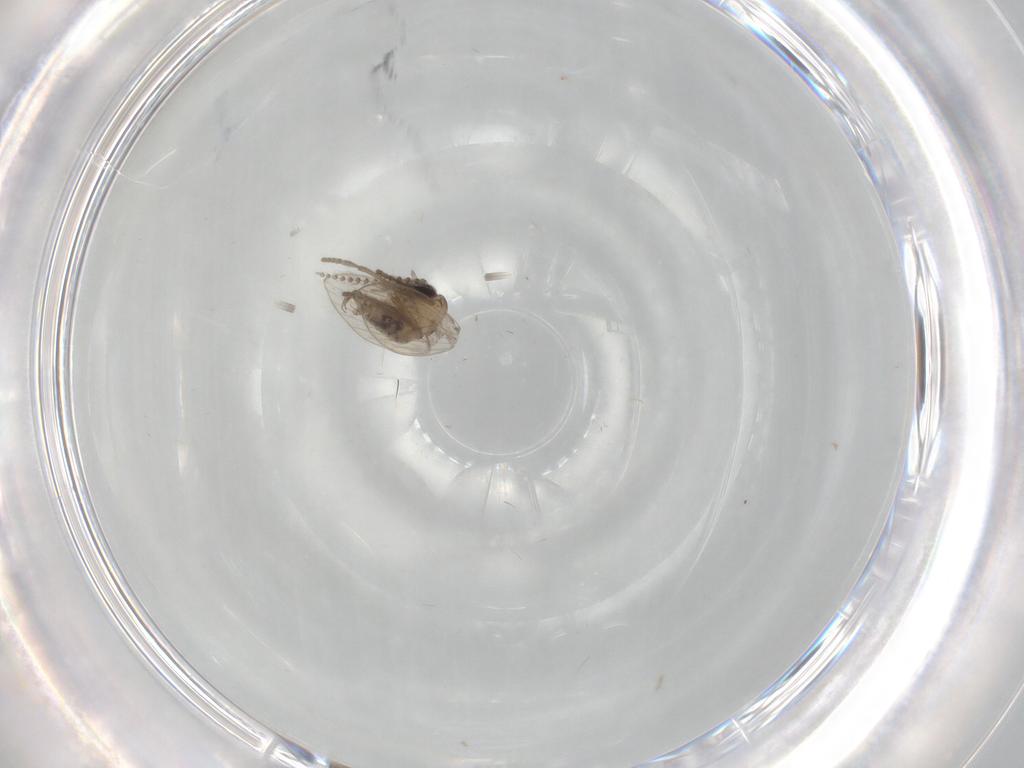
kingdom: Animalia
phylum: Arthropoda
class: Insecta
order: Diptera
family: Psychodidae
